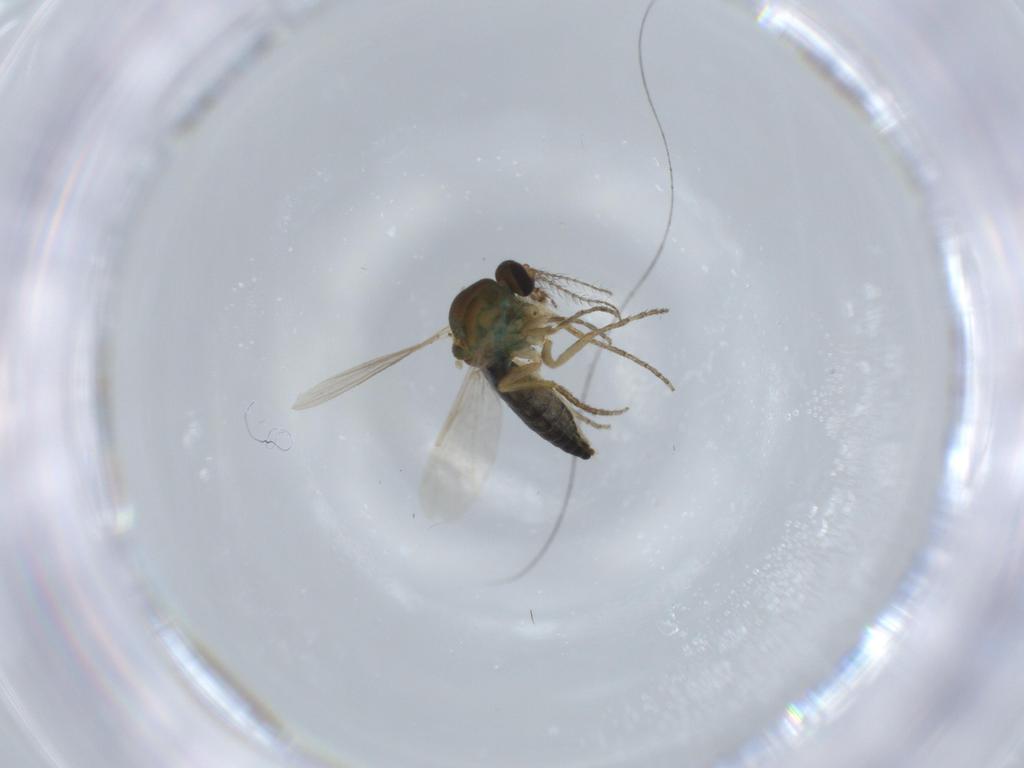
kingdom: Animalia
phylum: Arthropoda
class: Insecta
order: Diptera
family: Ceratopogonidae
